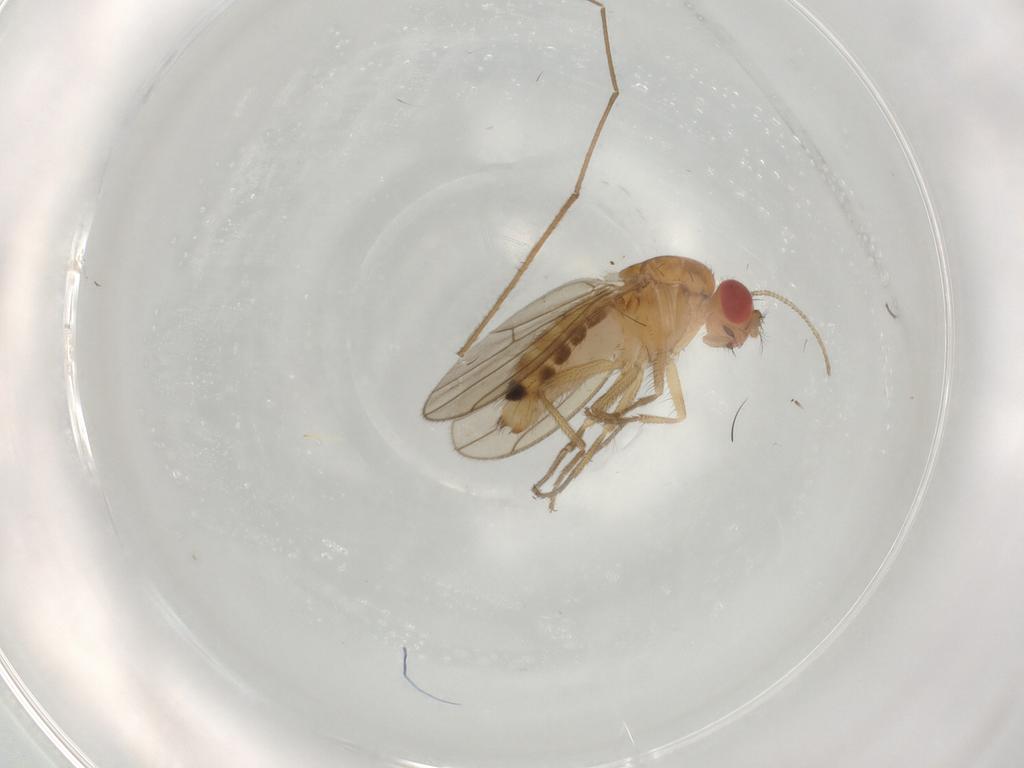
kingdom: Animalia
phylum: Arthropoda
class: Insecta
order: Diptera
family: Drosophilidae
